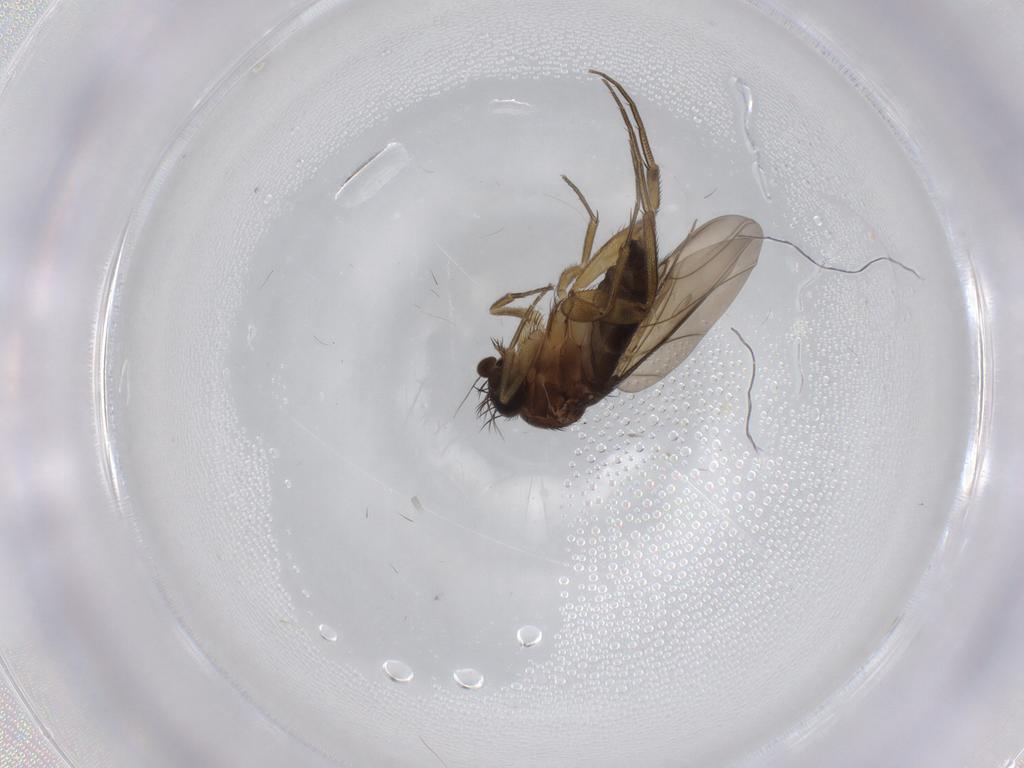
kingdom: Animalia
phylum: Arthropoda
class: Insecta
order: Diptera
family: Phoridae
